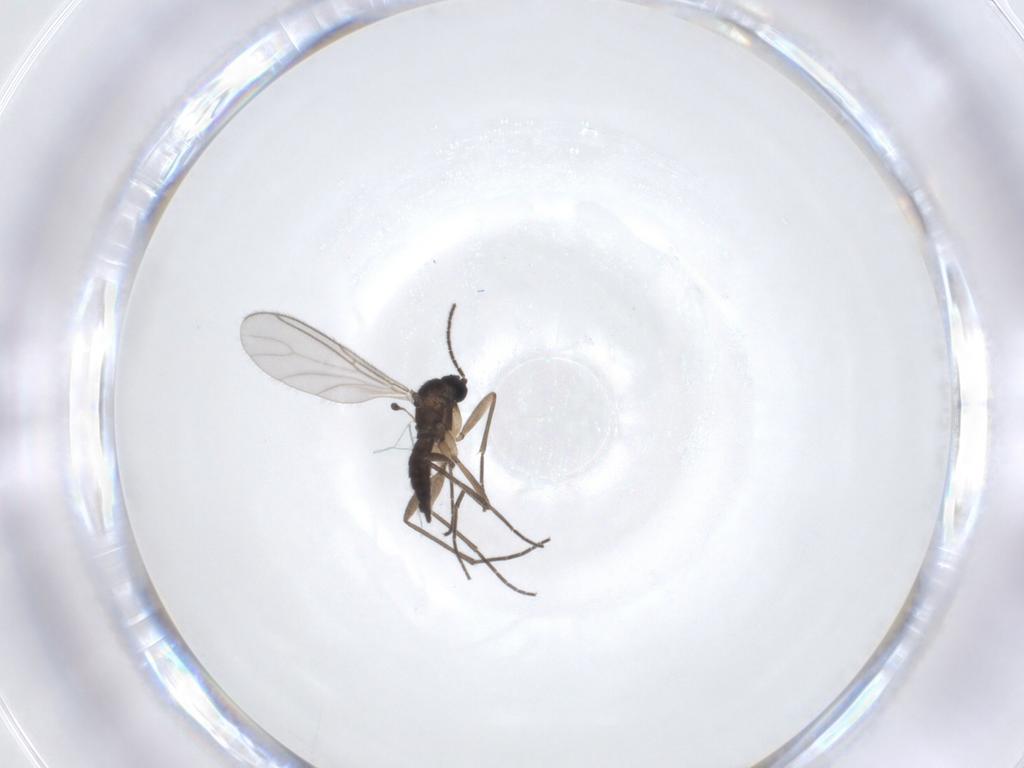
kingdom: Animalia
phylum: Arthropoda
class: Insecta
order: Diptera
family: Sciaridae
